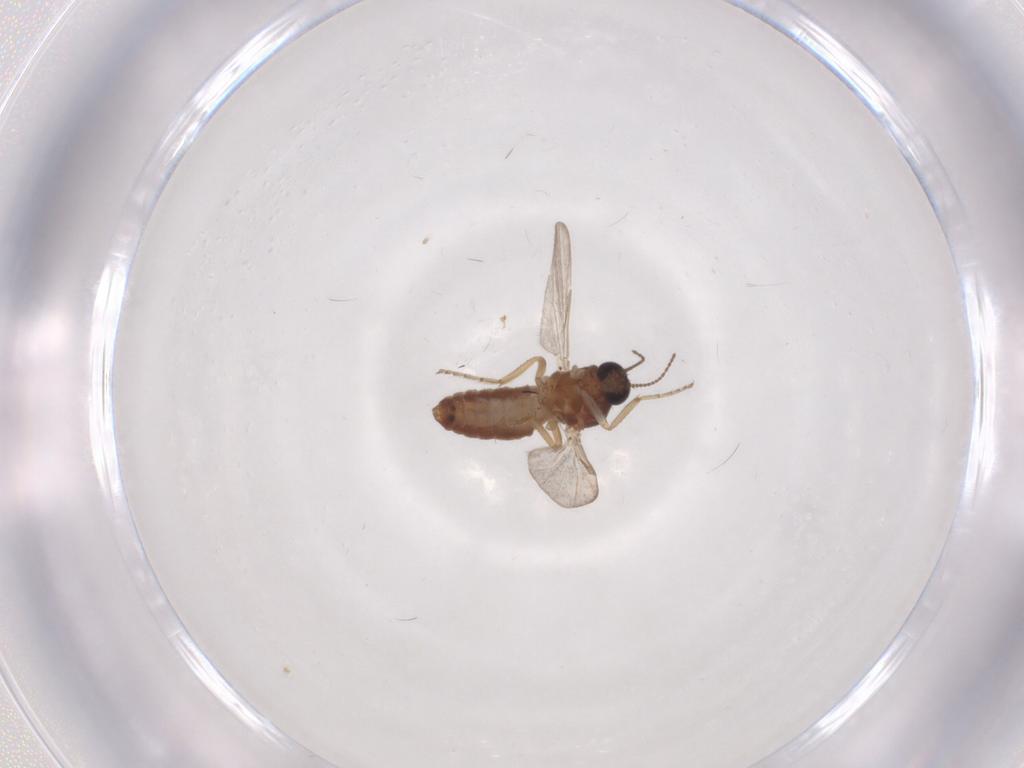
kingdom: Animalia
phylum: Arthropoda
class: Insecta
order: Diptera
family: Ceratopogonidae
